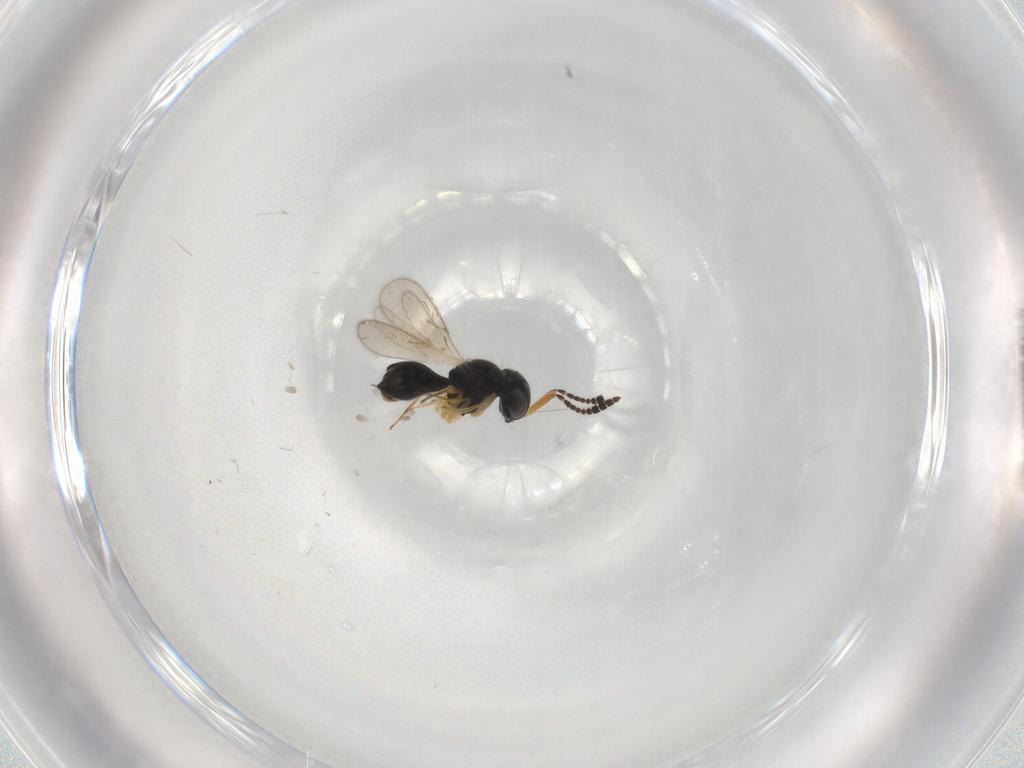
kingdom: Animalia
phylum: Arthropoda
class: Insecta
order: Hymenoptera
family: Scelionidae
